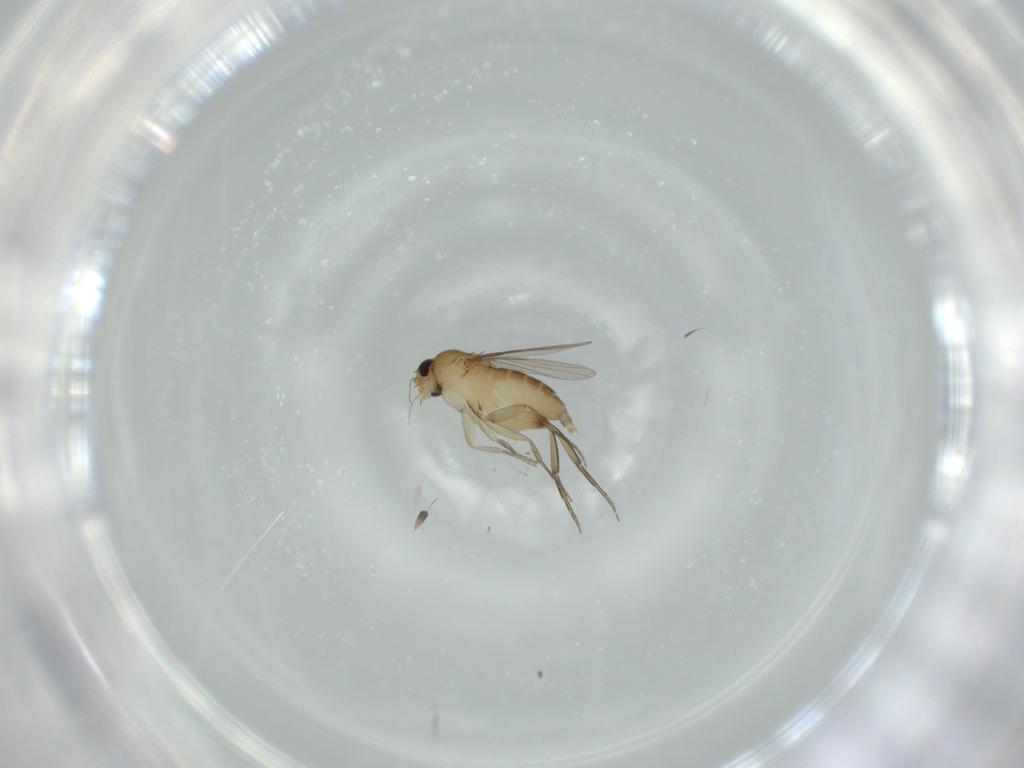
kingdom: Animalia
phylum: Arthropoda
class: Insecta
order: Diptera
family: Phoridae
